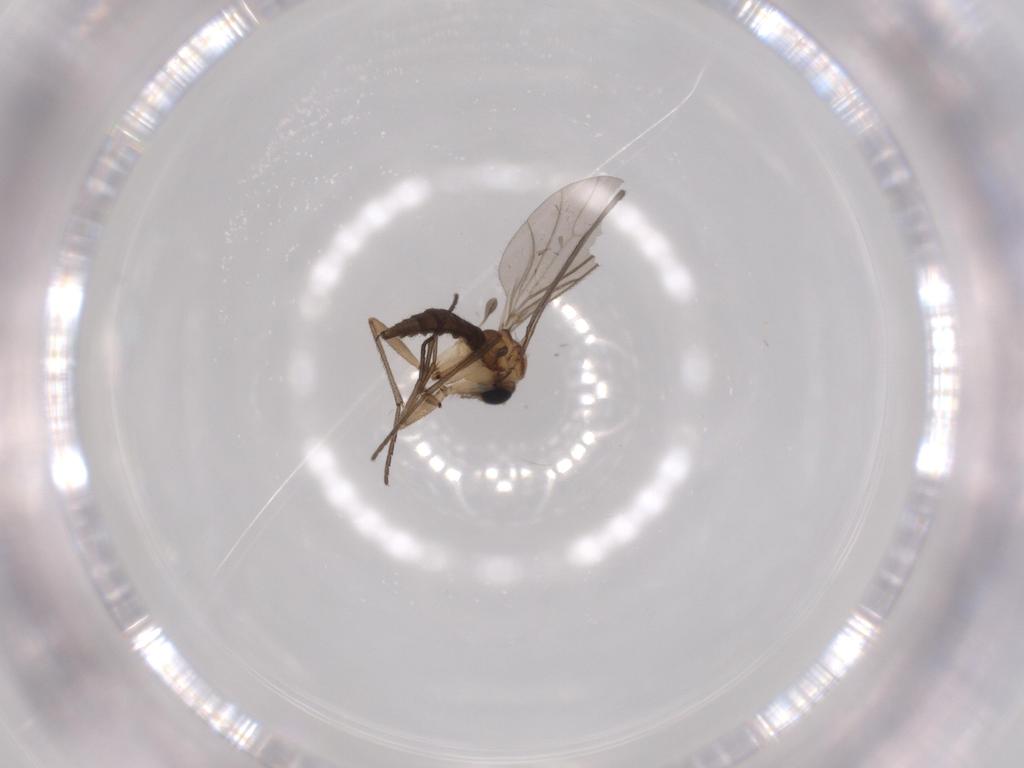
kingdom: Animalia
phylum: Arthropoda
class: Insecta
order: Diptera
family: Sciaridae
